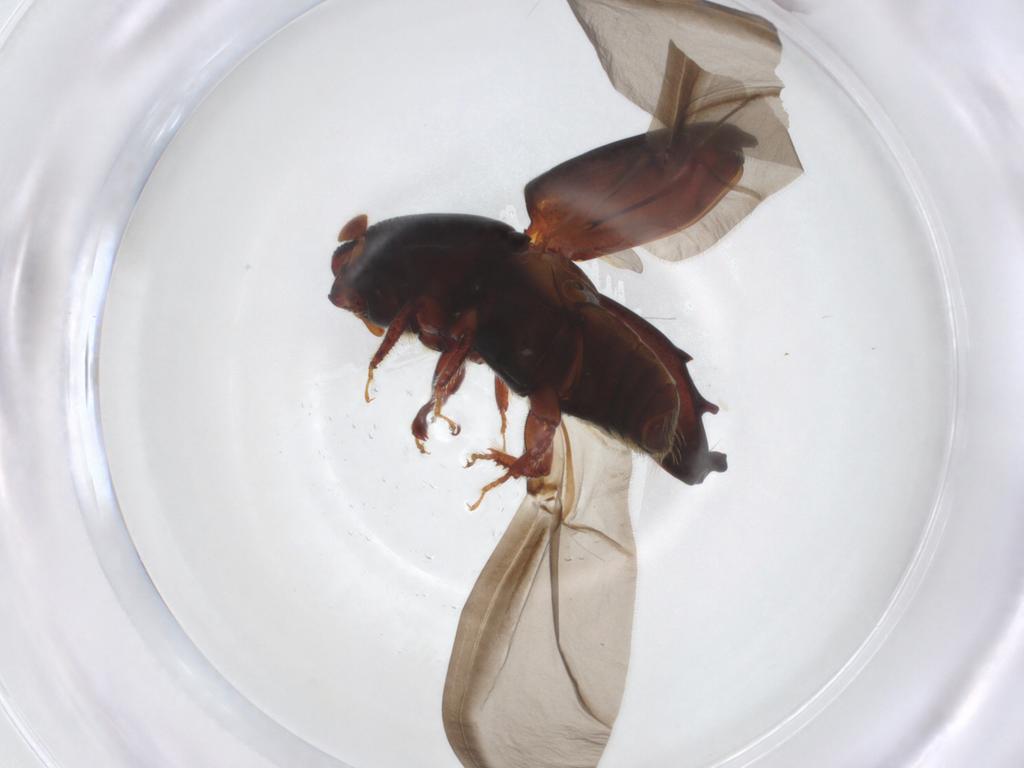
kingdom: Animalia
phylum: Arthropoda
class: Insecta
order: Coleoptera
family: Curculionidae
